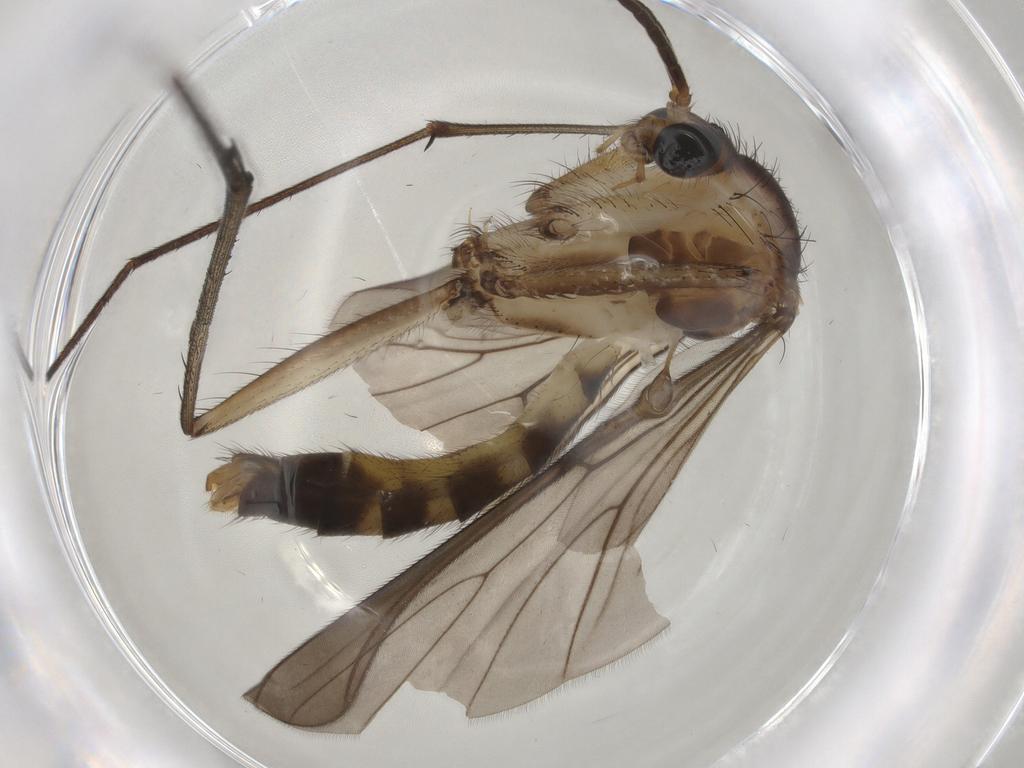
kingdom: Animalia
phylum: Arthropoda
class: Insecta
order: Diptera
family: Mycetophilidae
